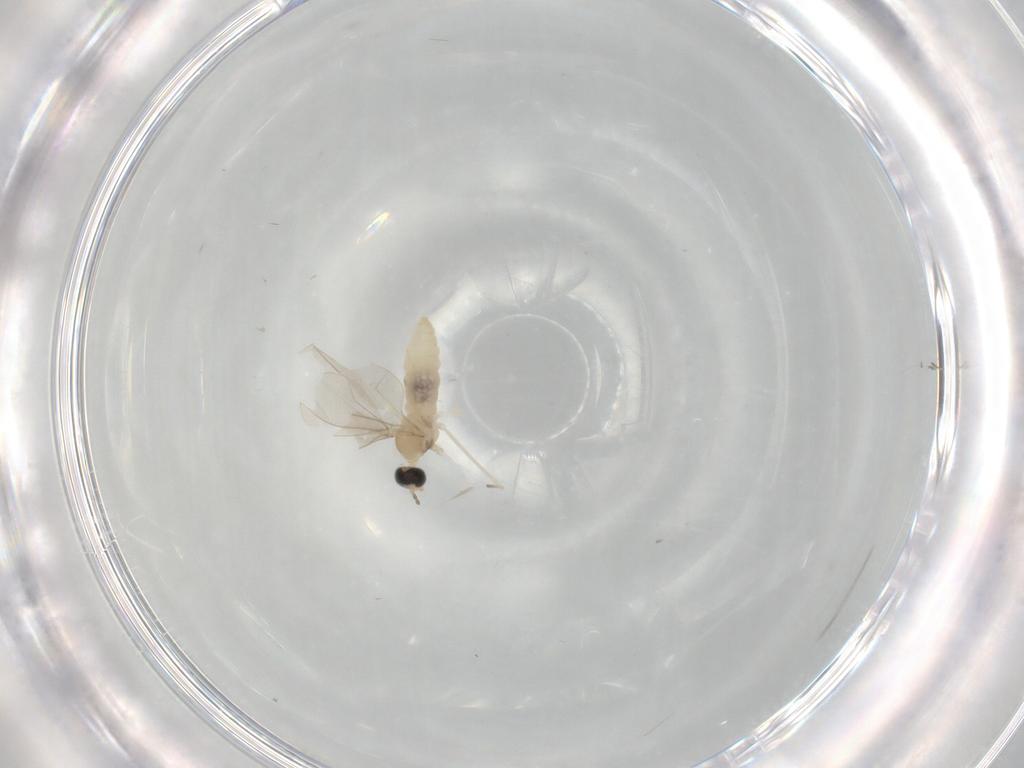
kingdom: Animalia
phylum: Arthropoda
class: Insecta
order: Diptera
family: Cecidomyiidae
